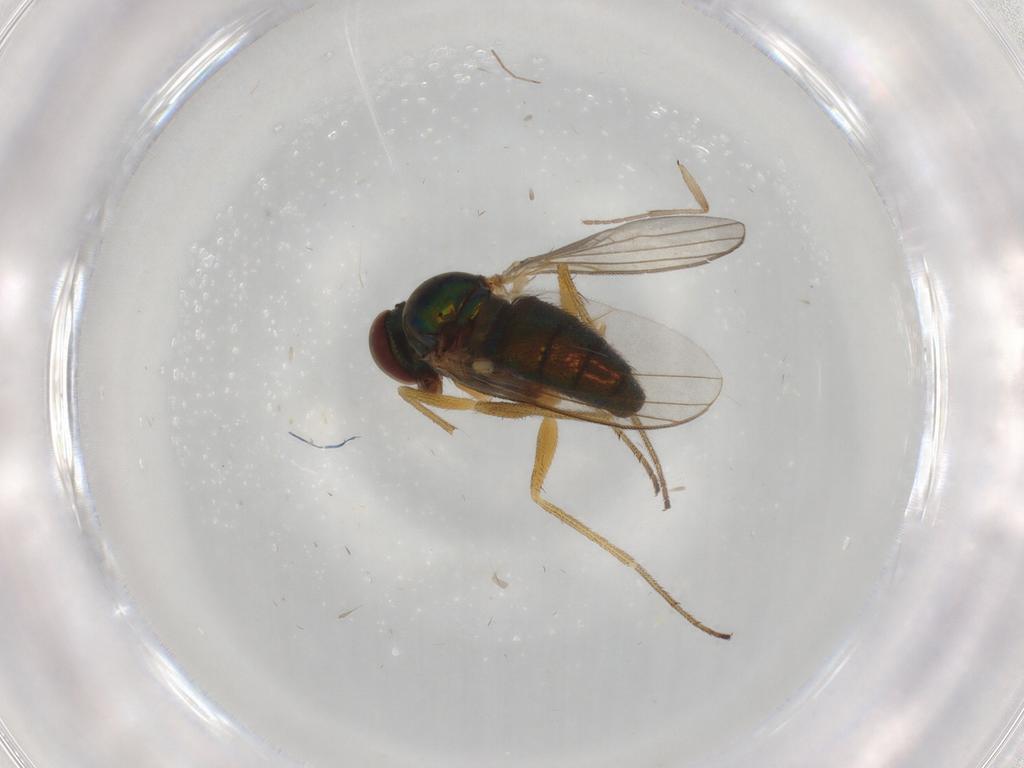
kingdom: Animalia
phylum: Arthropoda
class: Insecta
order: Diptera
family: Dolichopodidae
